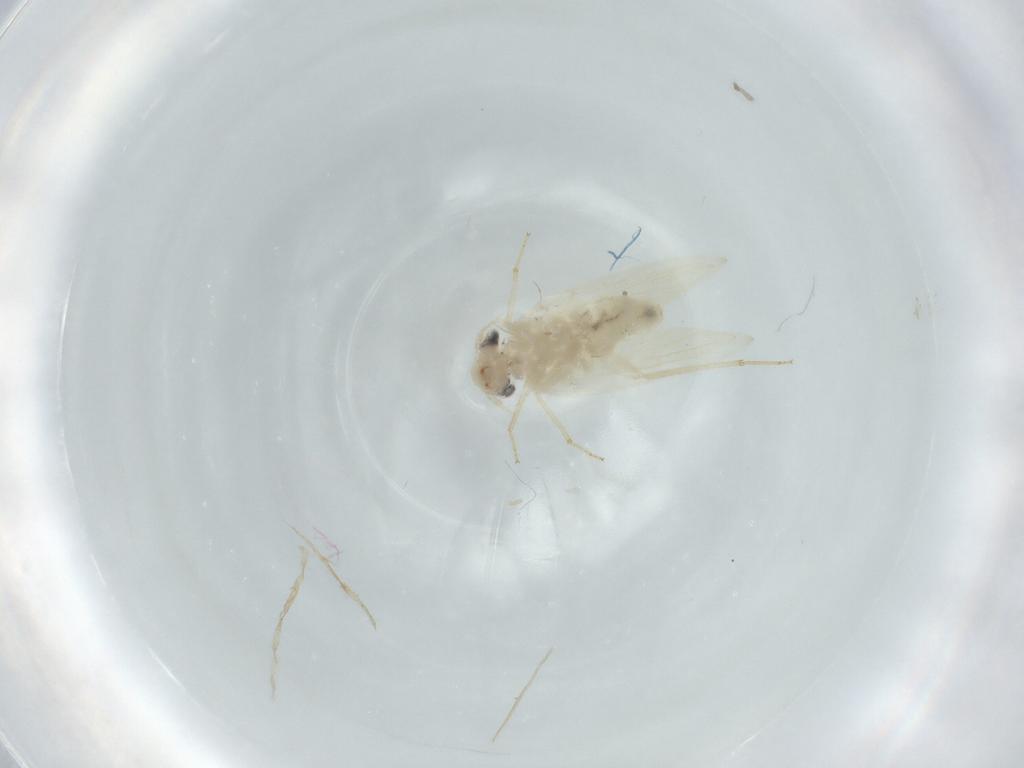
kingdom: Animalia
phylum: Arthropoda
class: Insecta
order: Psocodea
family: Lepidopsocidae
